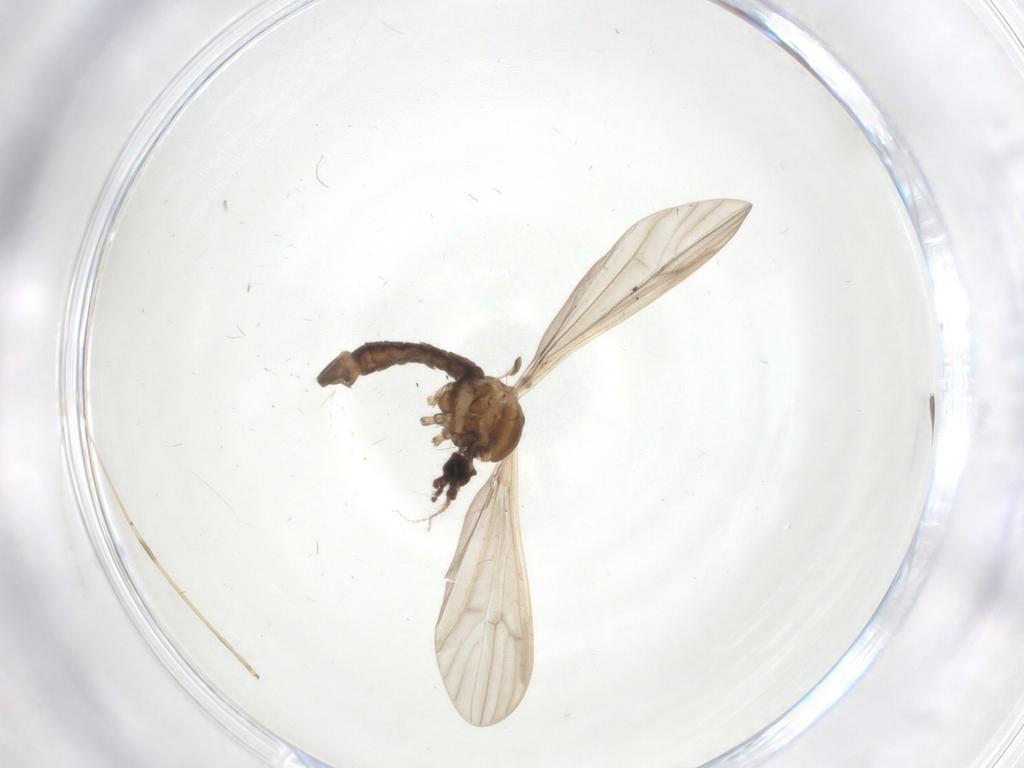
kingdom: Animalia
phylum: Arthropoda
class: Insecta
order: Diptera
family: Limoniidae
